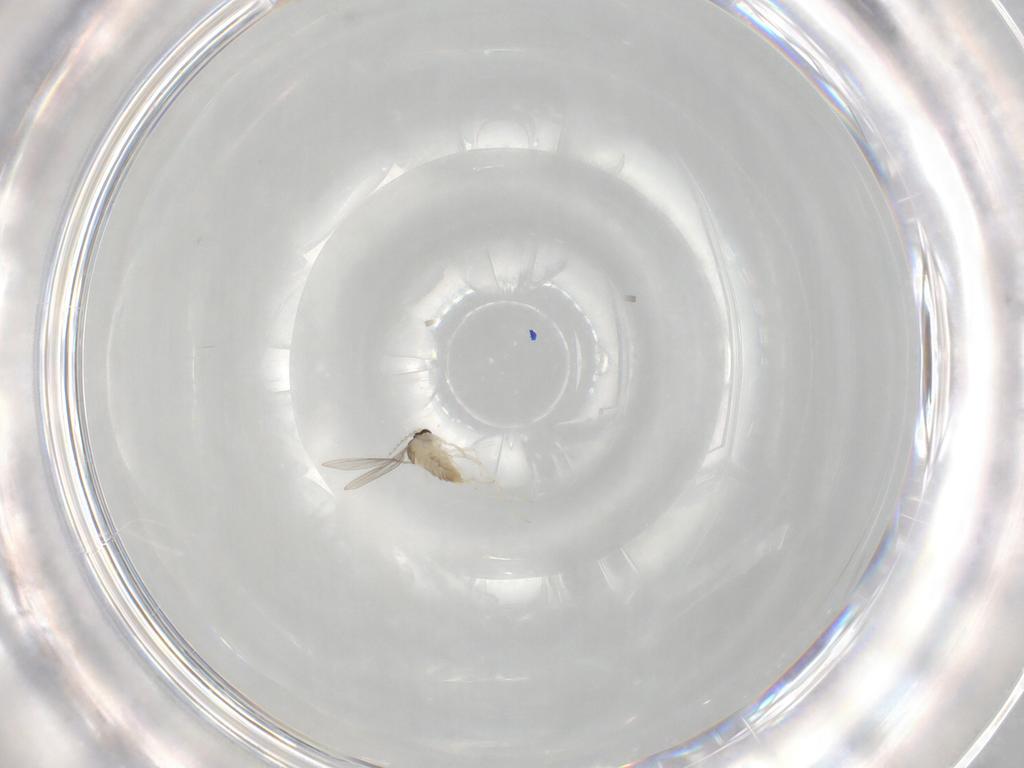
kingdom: Animalia
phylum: Arthropoda
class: Insecta
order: Diptera
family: Cecidomyiidae
